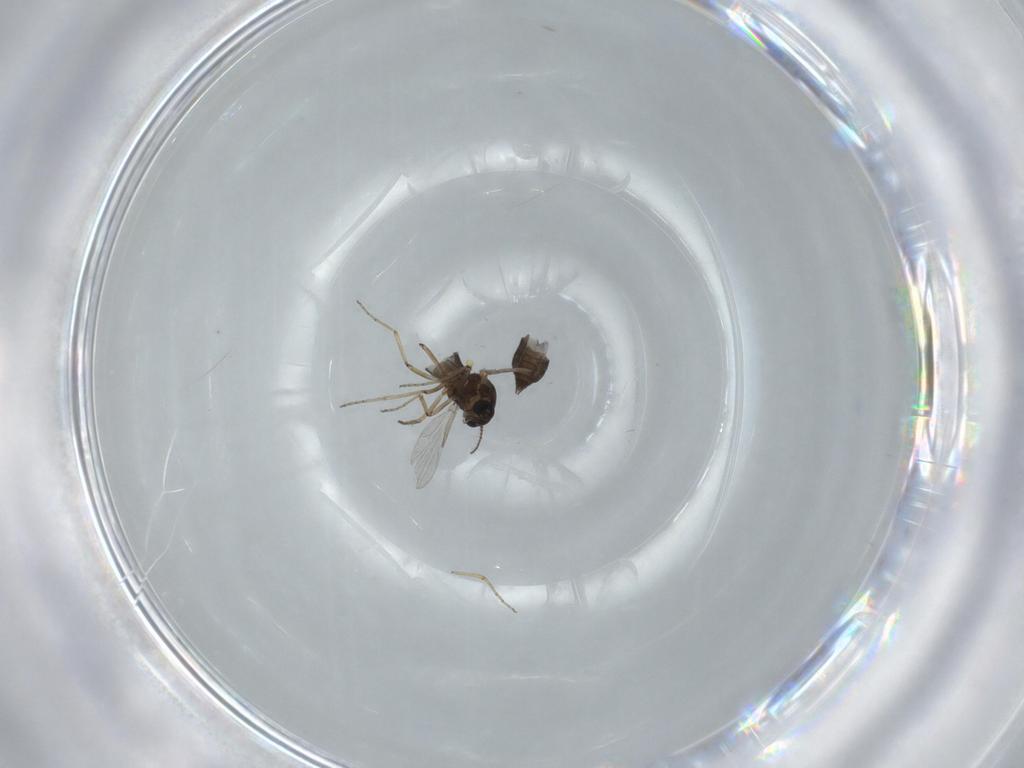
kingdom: Animalia
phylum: Arthropoda
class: Insecta
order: Diptera
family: Ceratopogonidae
